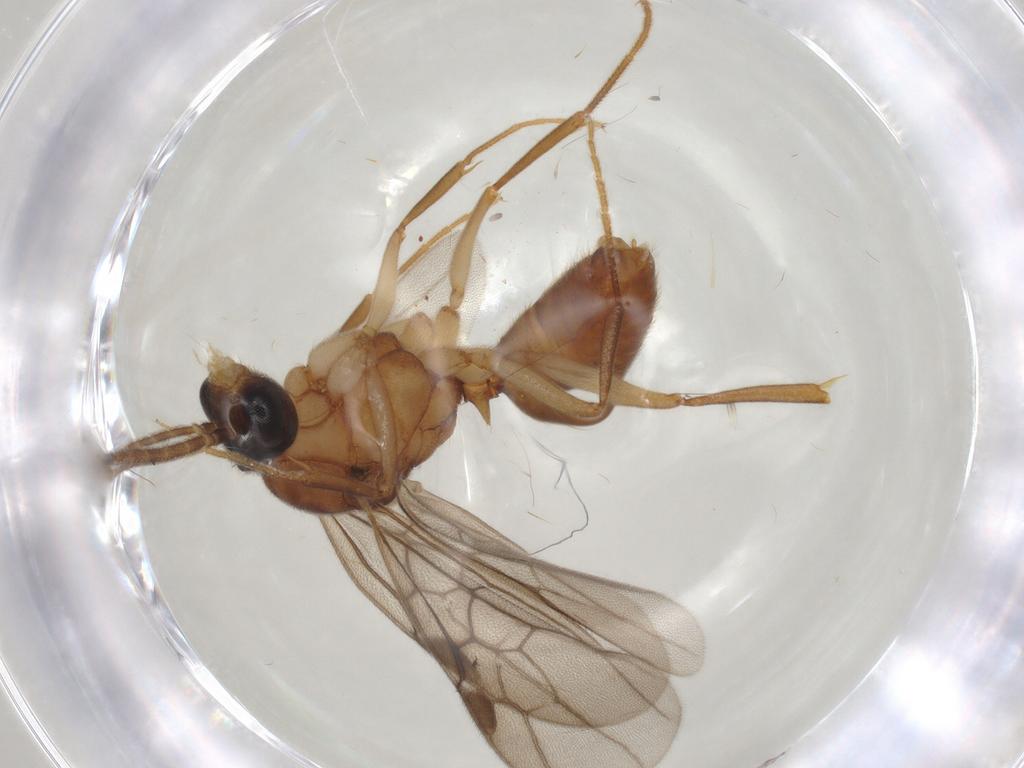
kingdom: Animalia
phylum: Arthropoda
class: Insecta
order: Hymenoptera
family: Formicidae
